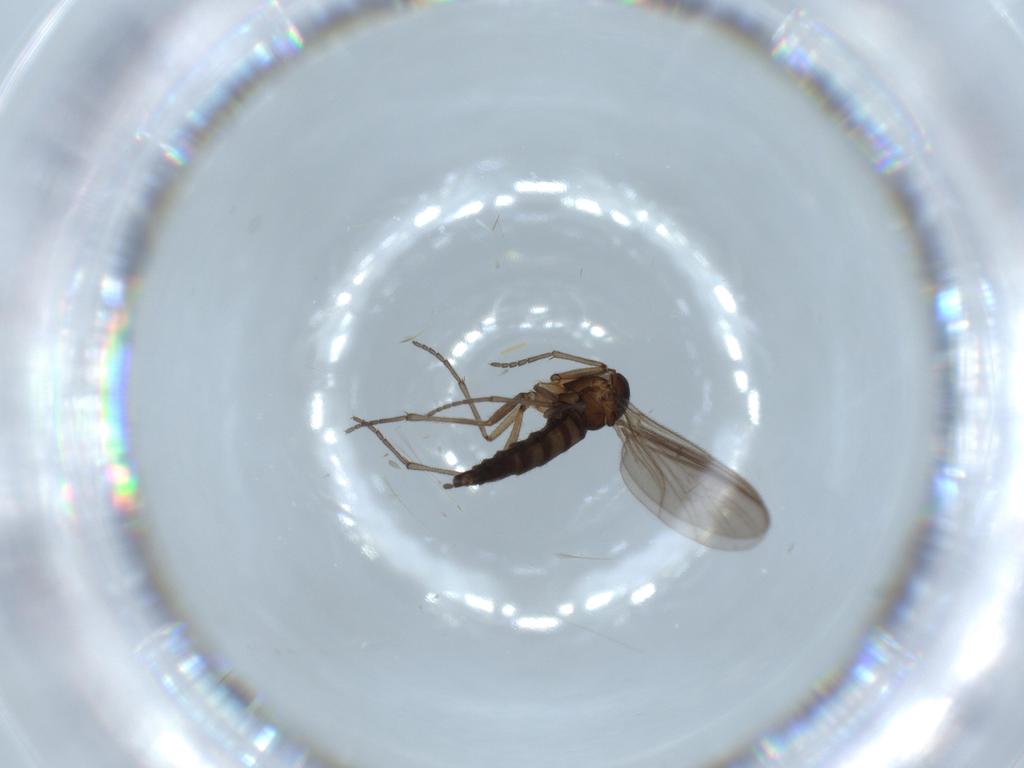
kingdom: Animalia
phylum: Arthropoda
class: Insecta
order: Diptera
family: Sciaridae
